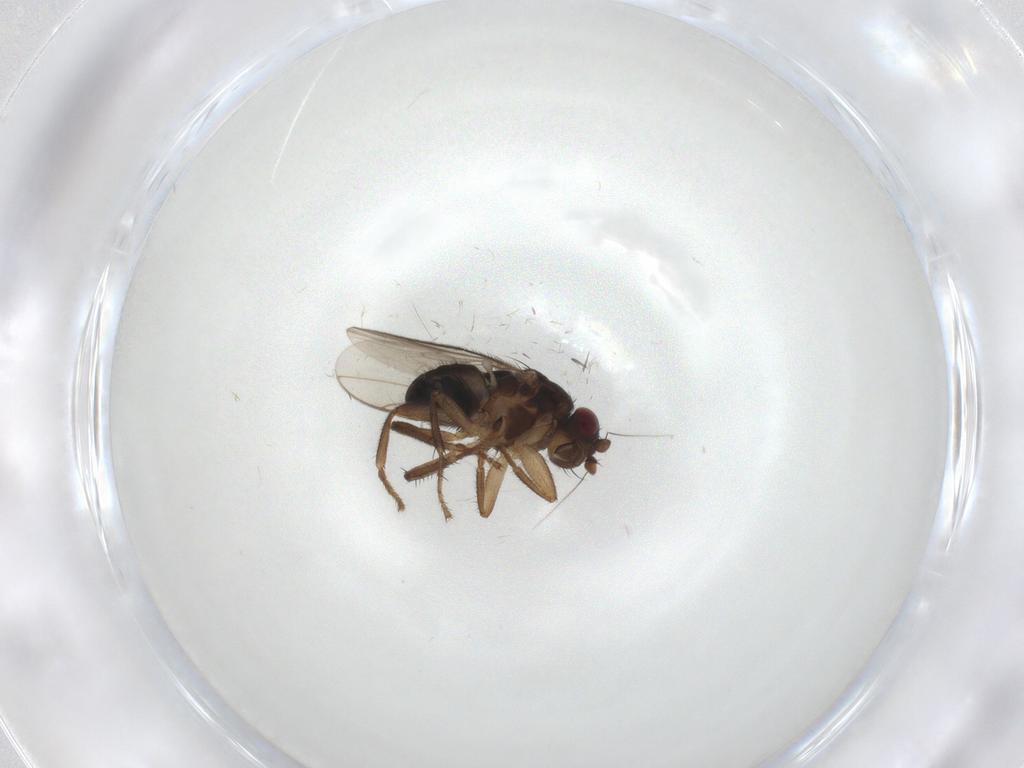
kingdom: Animalia
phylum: Arthropoda
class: Insecta
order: Diptera
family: Sphaeroceridae
